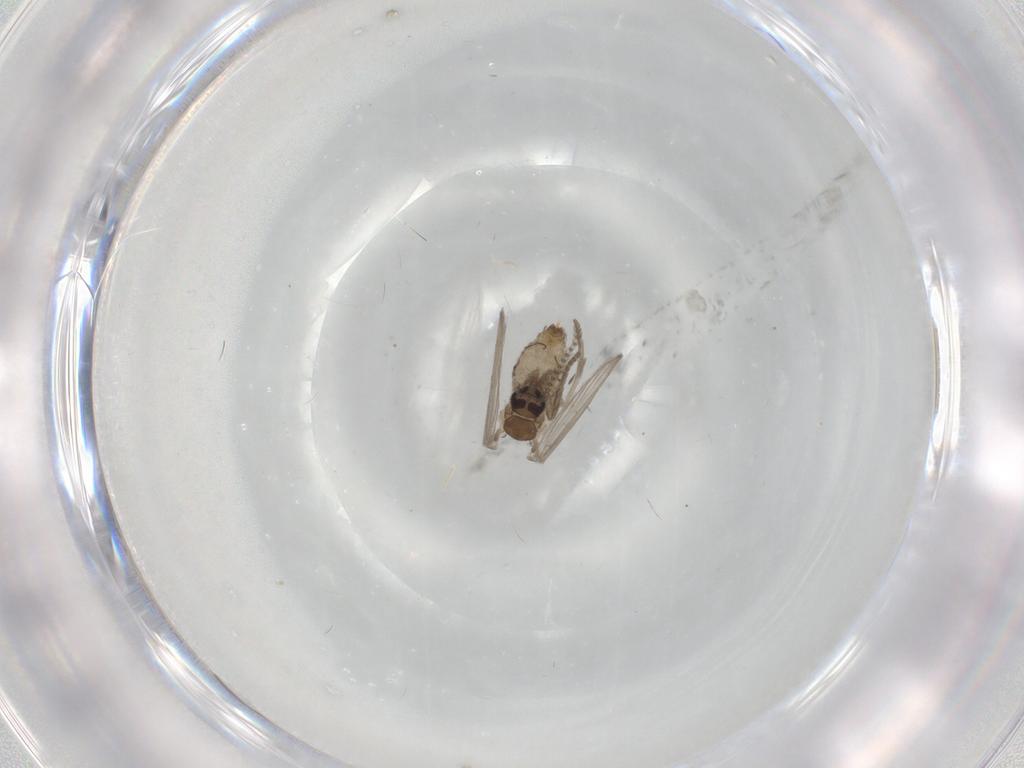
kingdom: Animalia
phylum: Arthropoda
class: Insecta
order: Diptera
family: Psychodidae
